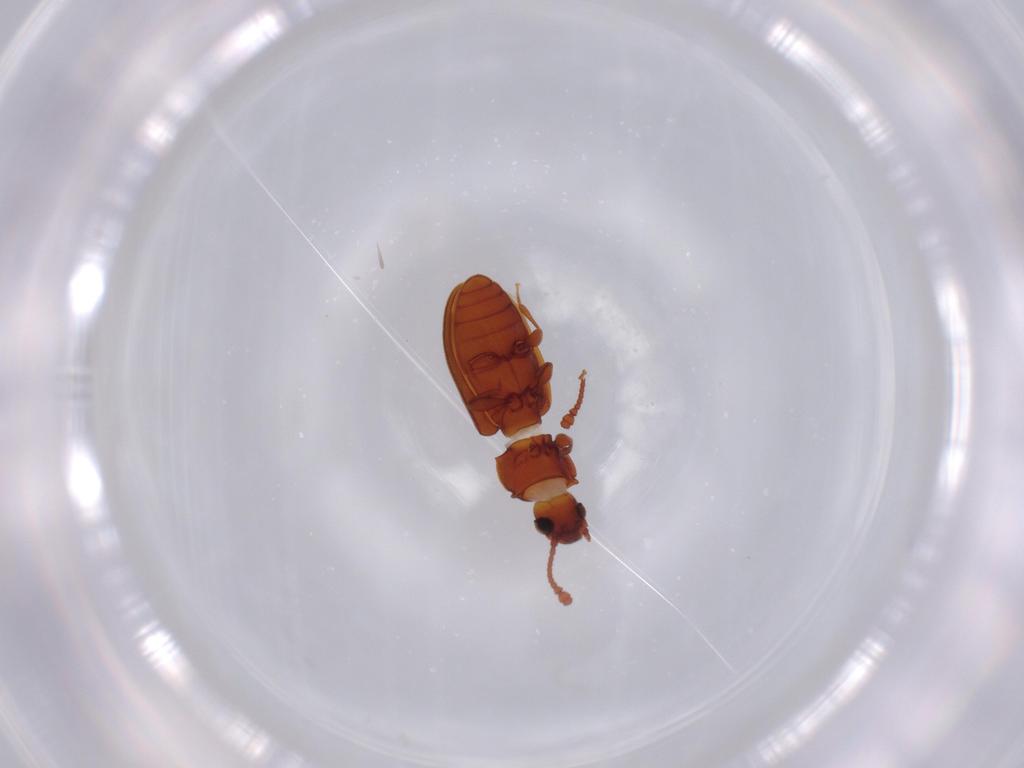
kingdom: Animalia
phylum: Arthropoda
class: Insecta
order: Coleoptera
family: Silvanidae
